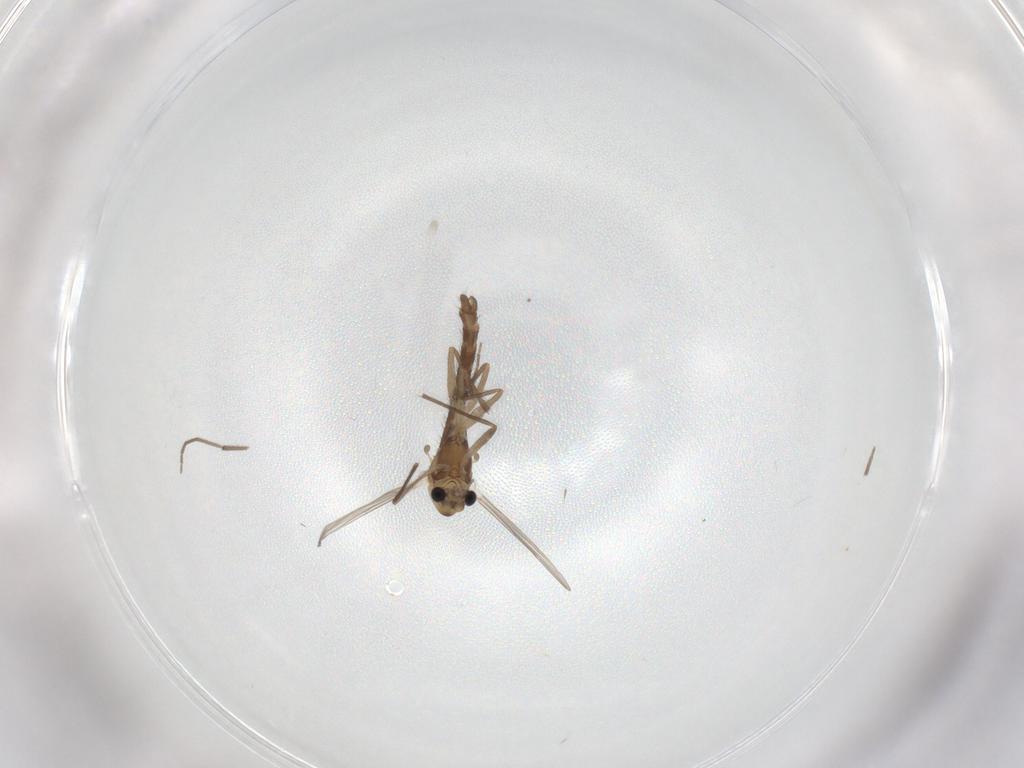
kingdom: Animalia
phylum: Arthropoda
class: Insecta
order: Diptera
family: Chironomidae
